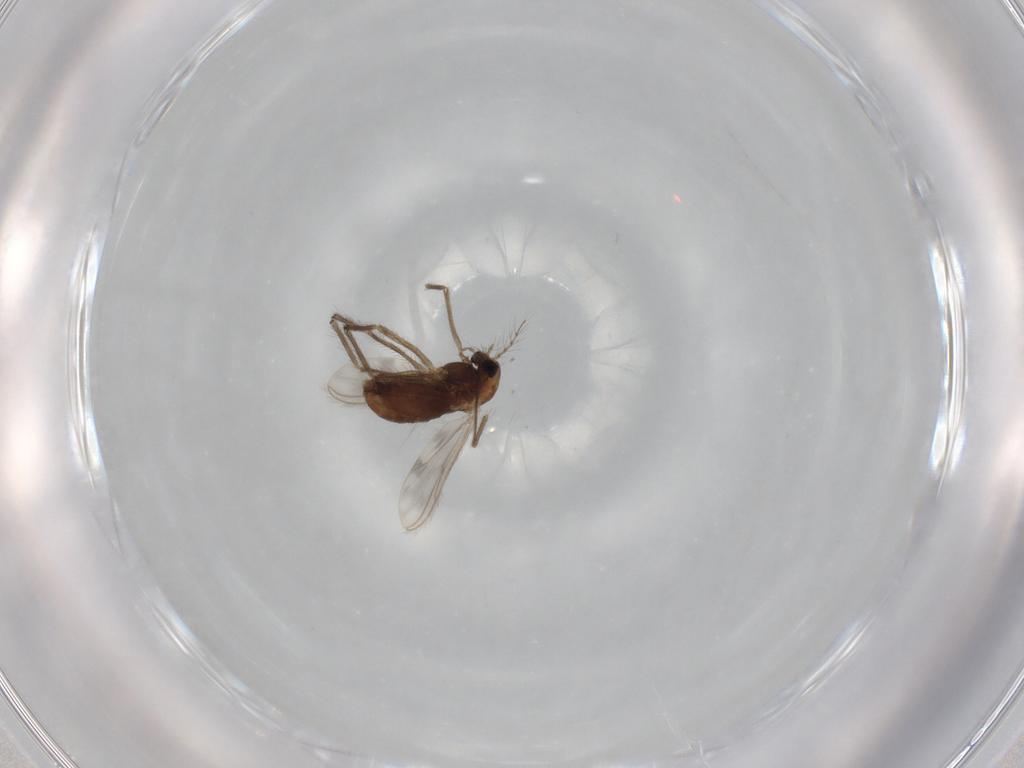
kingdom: Animalia
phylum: Arthropoda
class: Insecta
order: Diptera
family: Chironomidae
